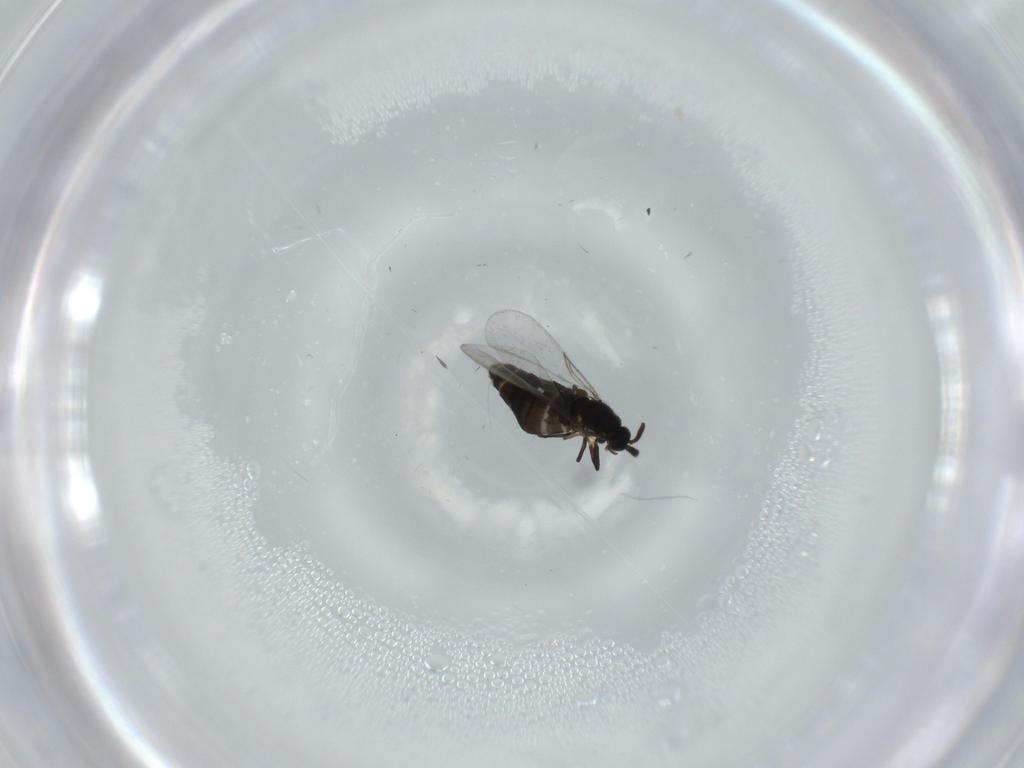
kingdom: Animalia
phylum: Arthropoda
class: Insecta
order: Diptera
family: Scatopsidae
